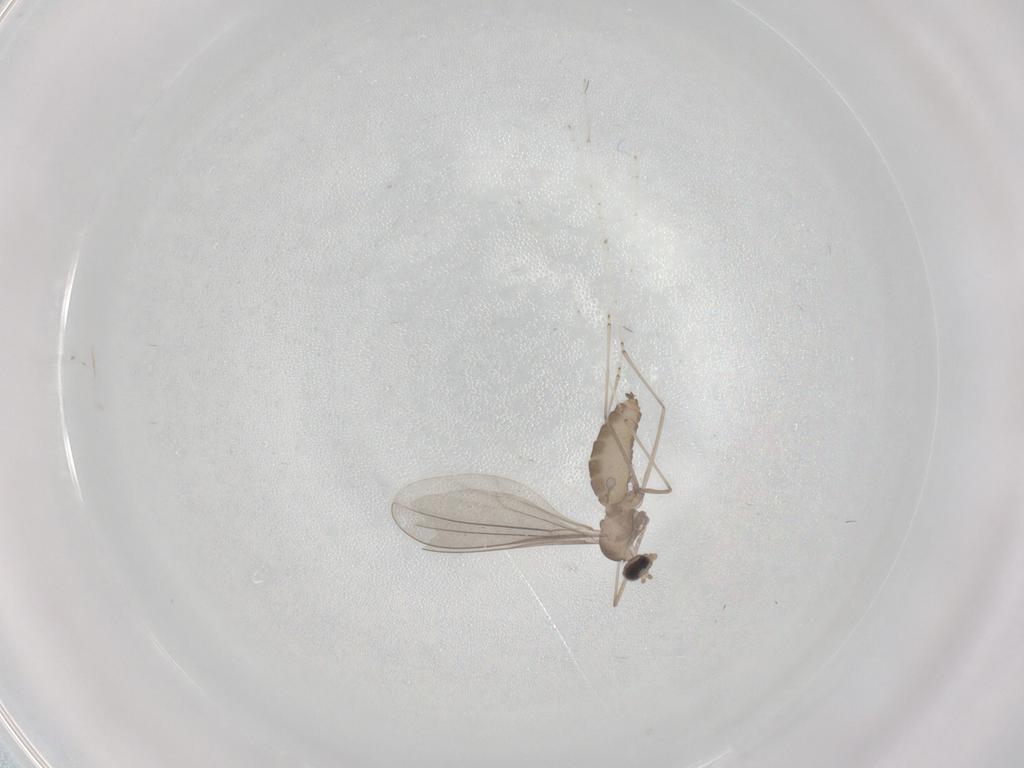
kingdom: Animalia
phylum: Arthropoda
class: Insecta
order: Diptera
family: Cecidomyiidae
